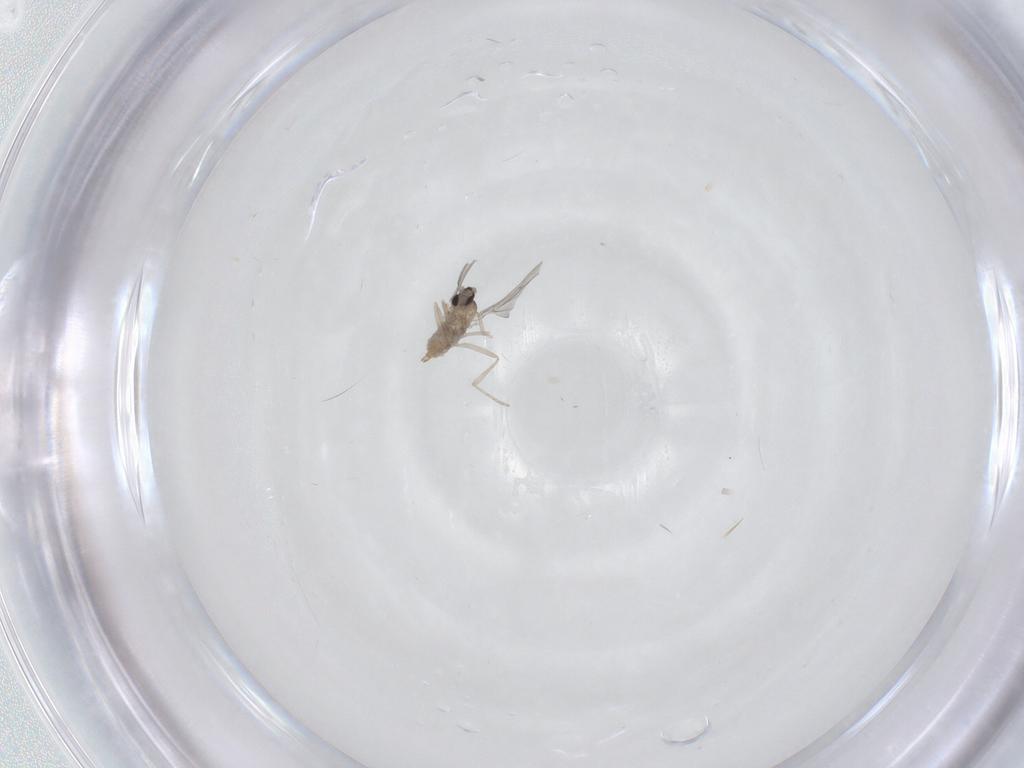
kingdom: Animalia
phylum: Arthropoda
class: Insecta
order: Diptera
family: Cecidomyiidae
